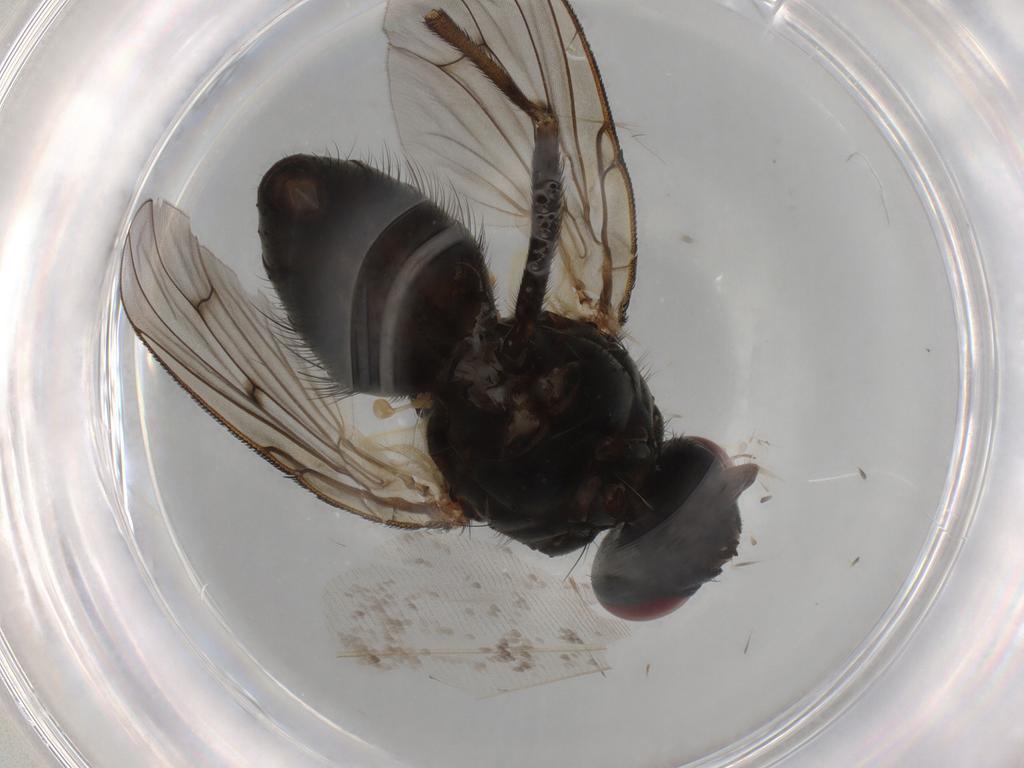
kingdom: Animalia
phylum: Arthropoda
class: Insecta
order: Diptera
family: Muscidae
